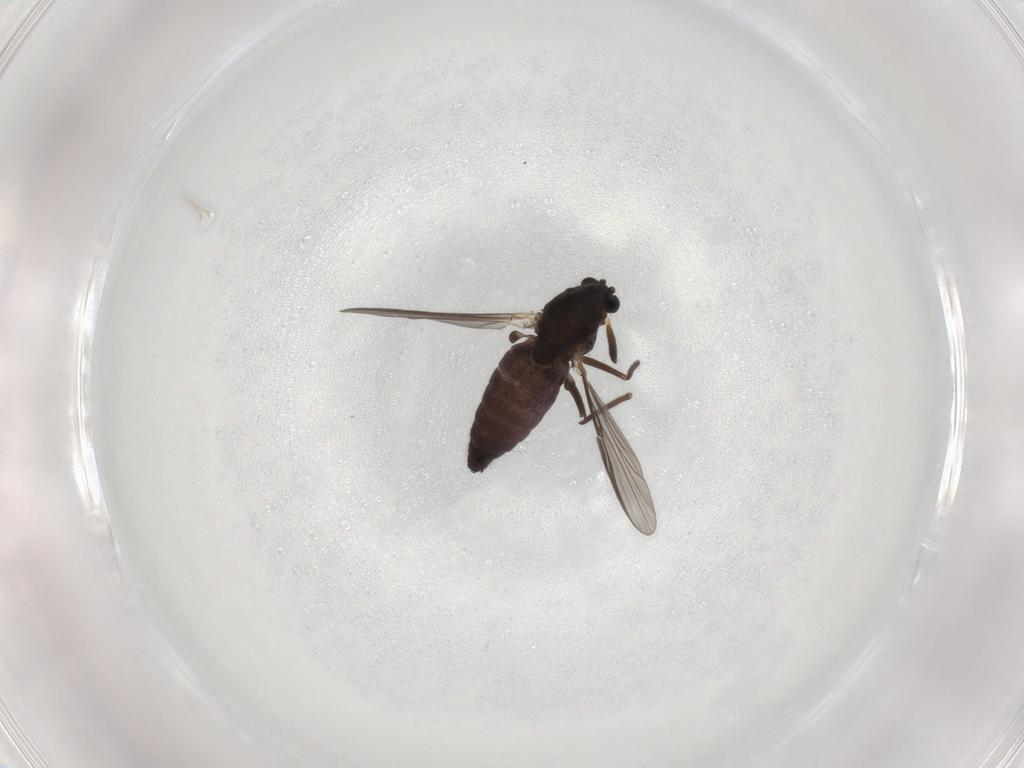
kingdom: Animalia
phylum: Arthropoda
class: Insecta
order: Diptera
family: Chironomidae
